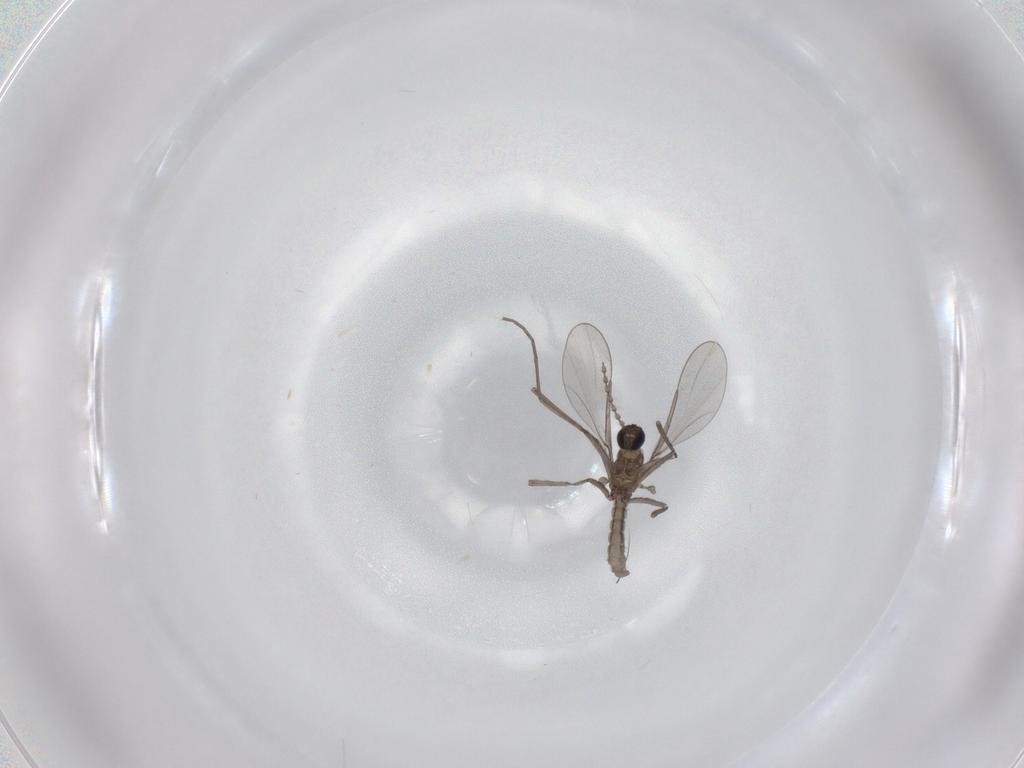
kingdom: Animalia
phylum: Arthropoda
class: Insecta
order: Diptera
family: Cecidomyiidae
